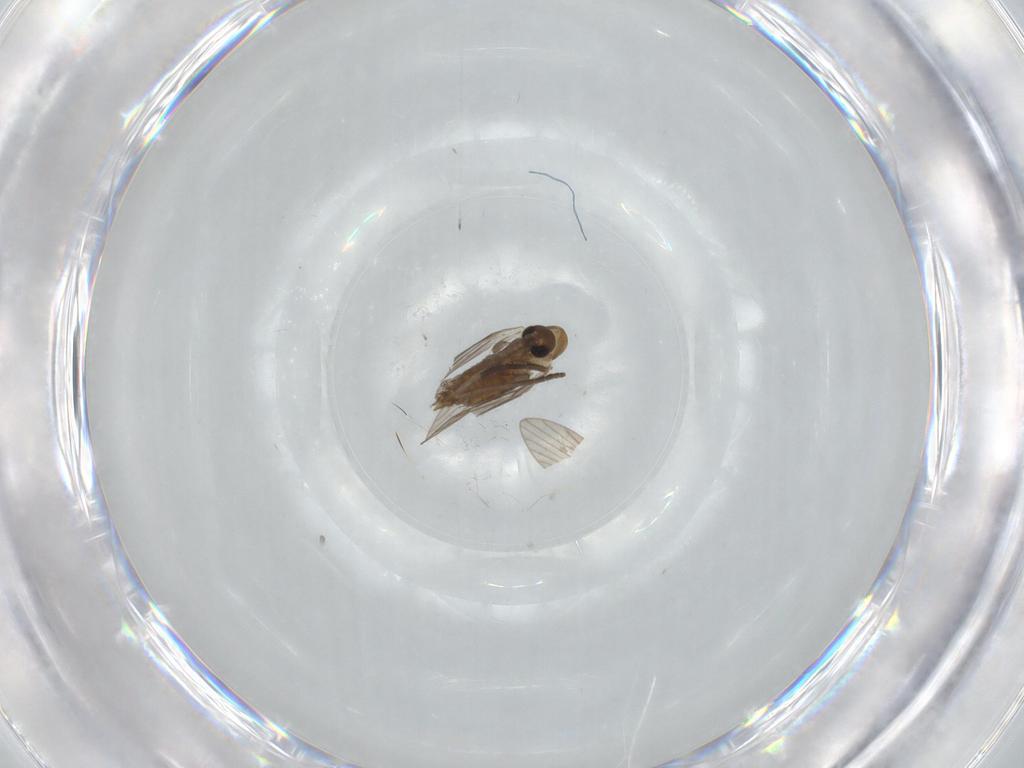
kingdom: Animalia
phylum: Arthropoda
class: Insecta
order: Diptera
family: Psychodidae
